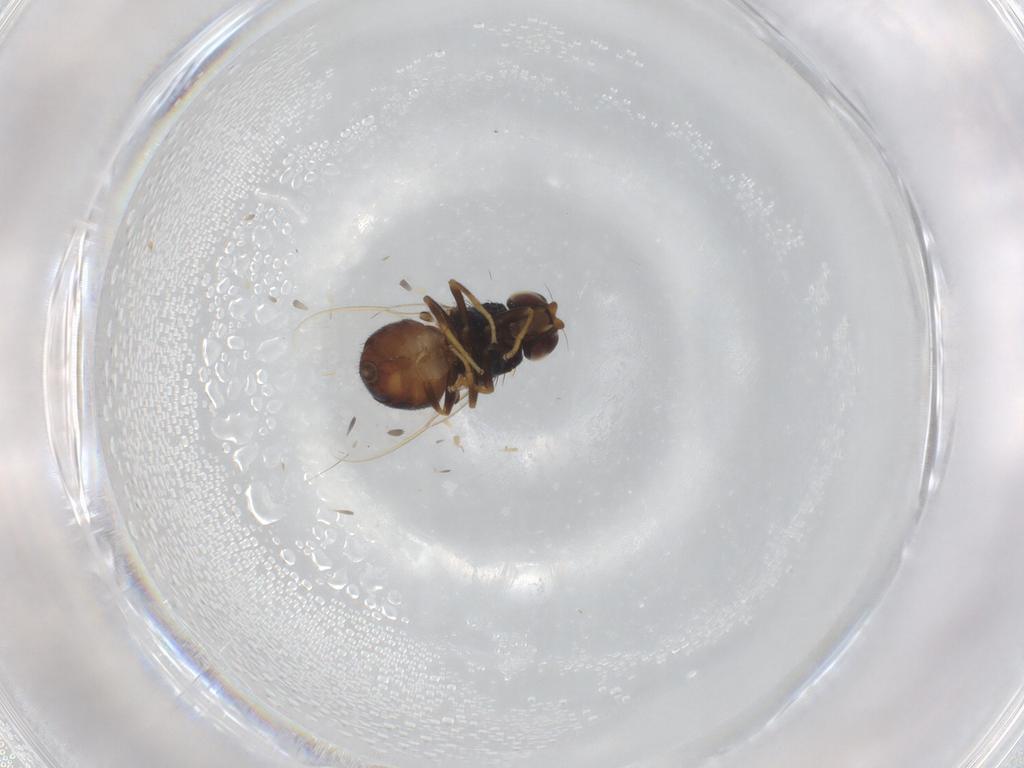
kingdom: Animalia
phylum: Arthropoda
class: Insecta
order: Diptera
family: Chloropidae
